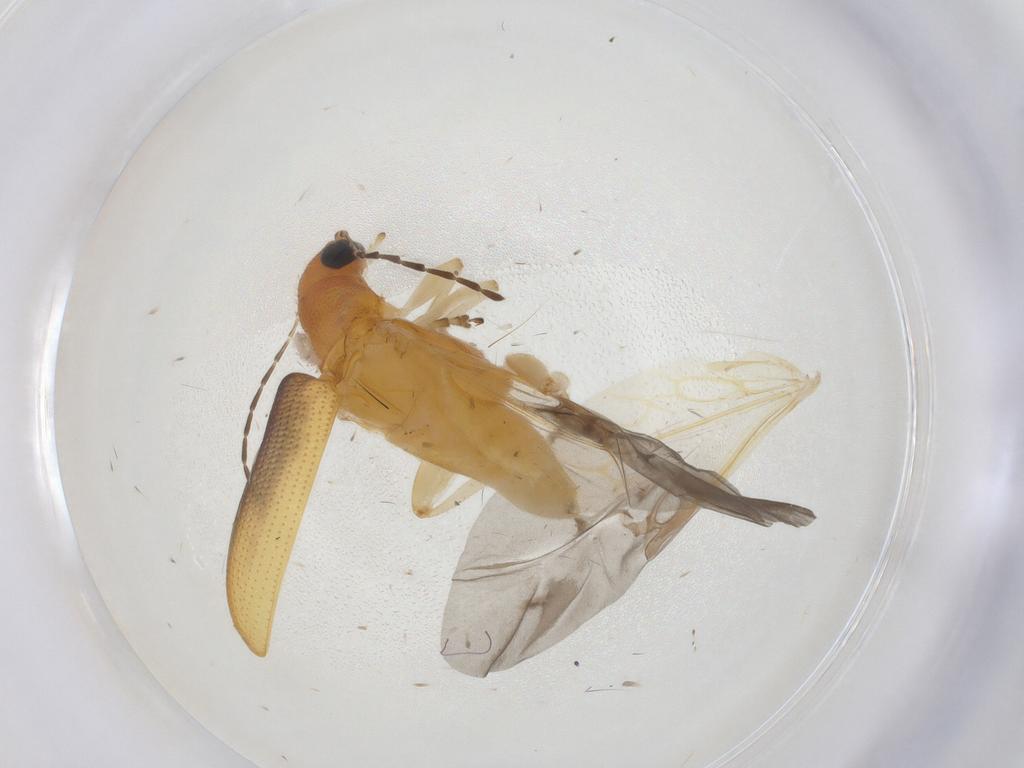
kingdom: Animalia
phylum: Arthropoda
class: Insecta
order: Coleoptera
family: Chrysomelidae
